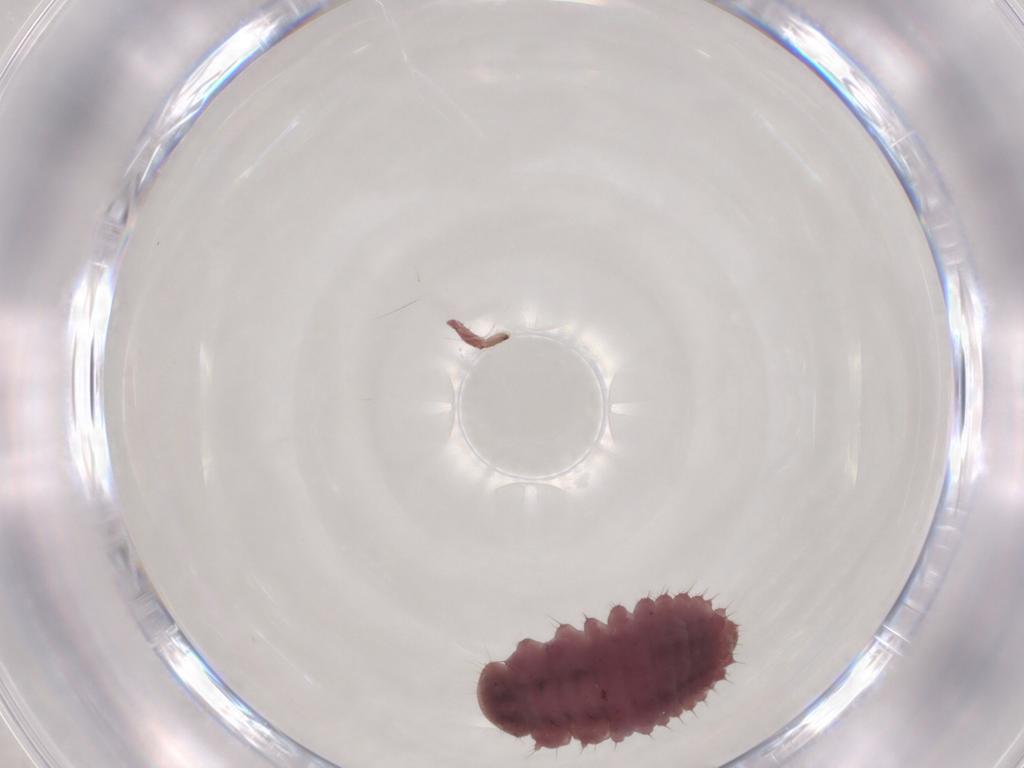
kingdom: Animalia
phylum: Arthropoda
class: Insecta
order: Coleoptera
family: Coccinellidae
